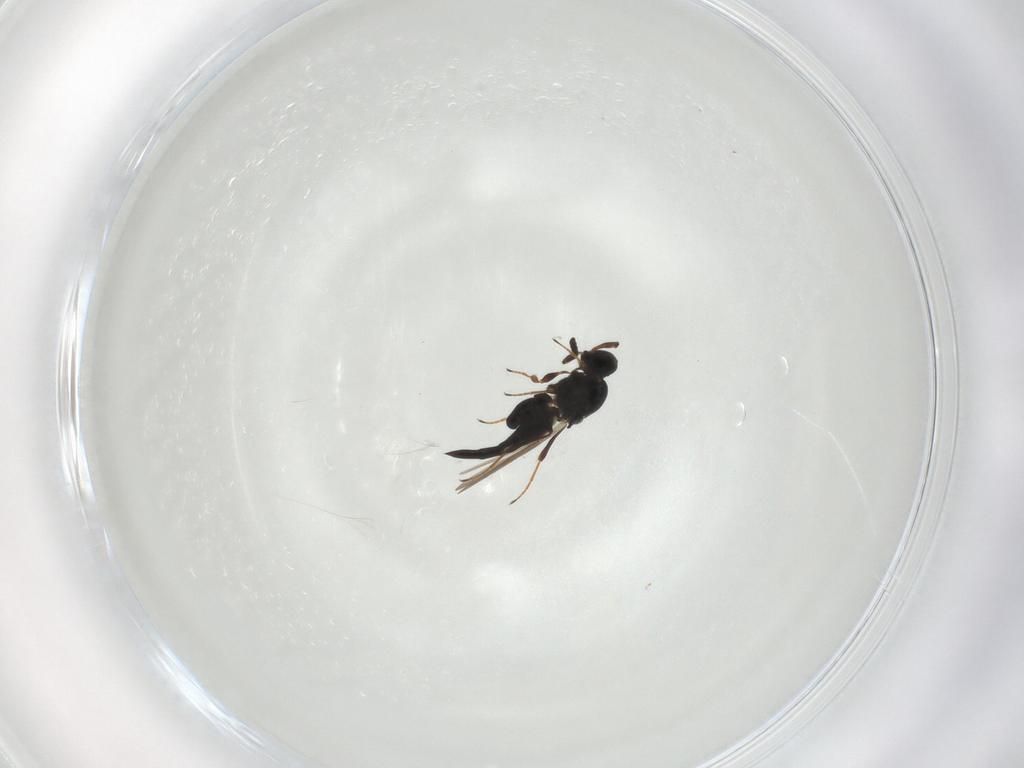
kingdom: Animalia
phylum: Arthropoda
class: Insecta
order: Hymenoptera
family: Platygastridae
